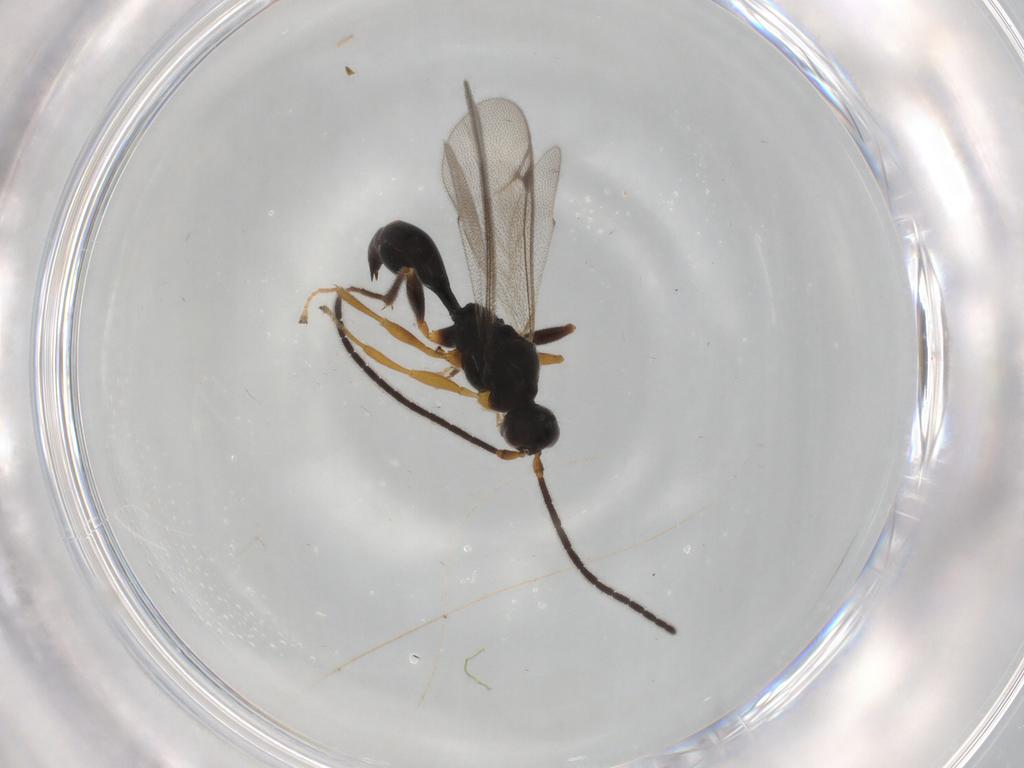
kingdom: Animalia
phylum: Arthropoda
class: Insecta
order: Hymenoptera
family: Proctotrupidae
